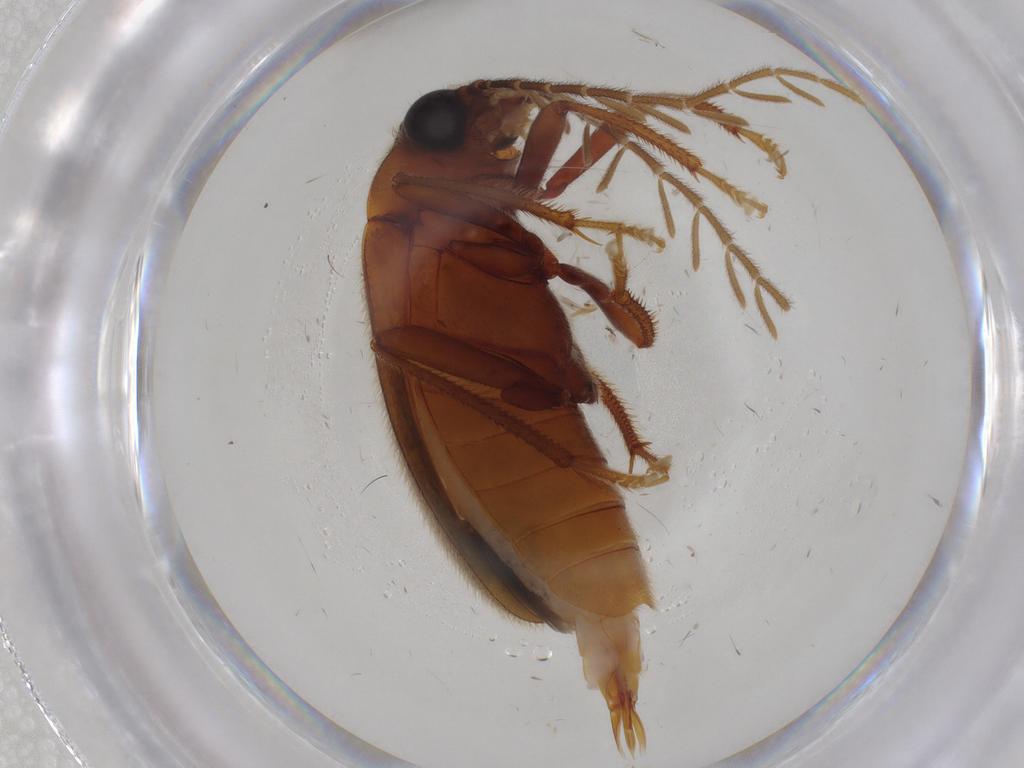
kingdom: Animalia
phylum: Arthropoda
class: Insecta
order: Coleoptera
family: Ptilodactylidae
